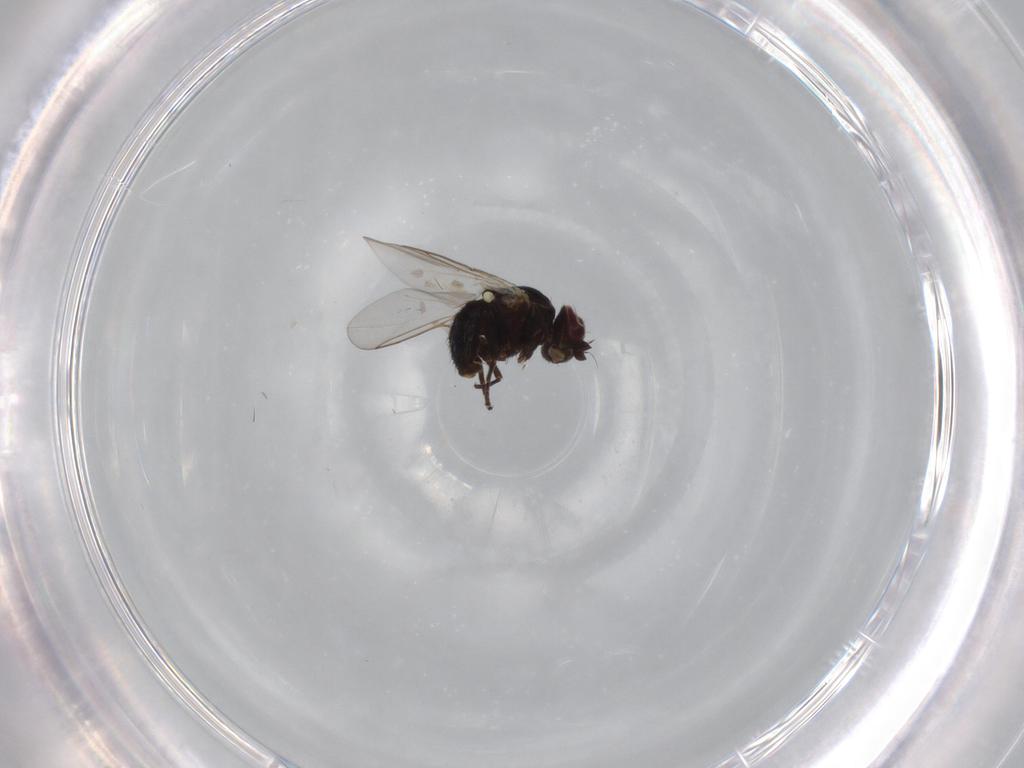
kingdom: Animalia
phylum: Arthropoda
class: Insecta
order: Diptera
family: Agromyzidae
